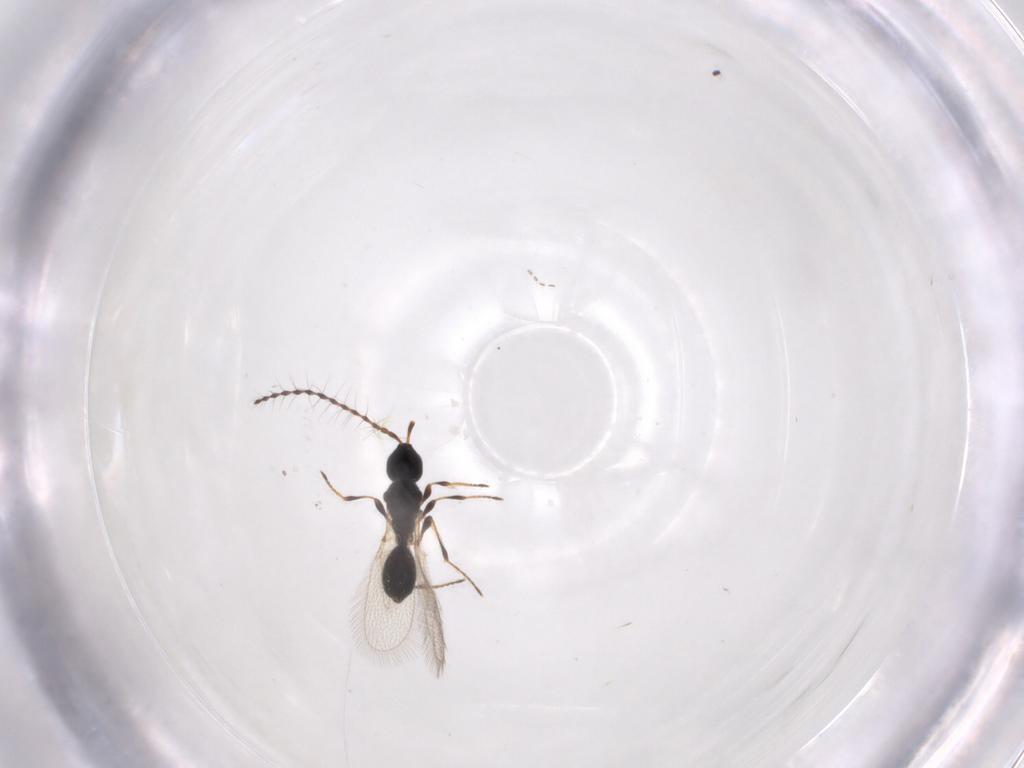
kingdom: Animalia
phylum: Arthropoda
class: Insecta
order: Hymenoptera
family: Diapriidae
